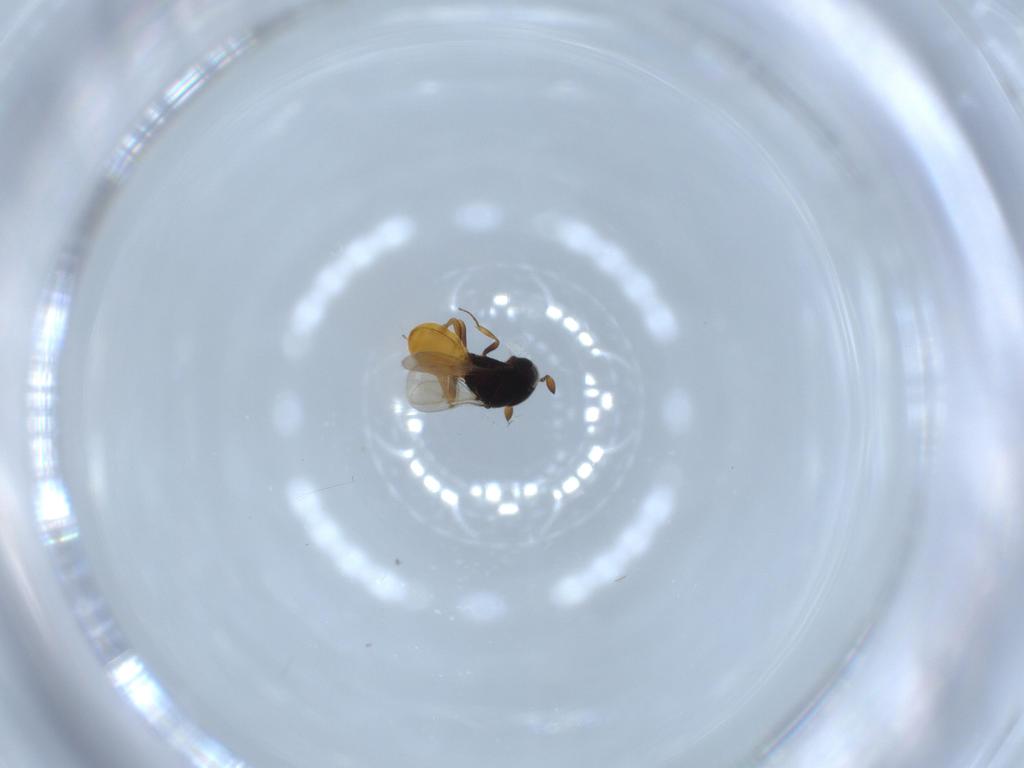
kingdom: Animalia
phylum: Arthropoda
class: Insecta
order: Hymenoptera
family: Scelionidae
